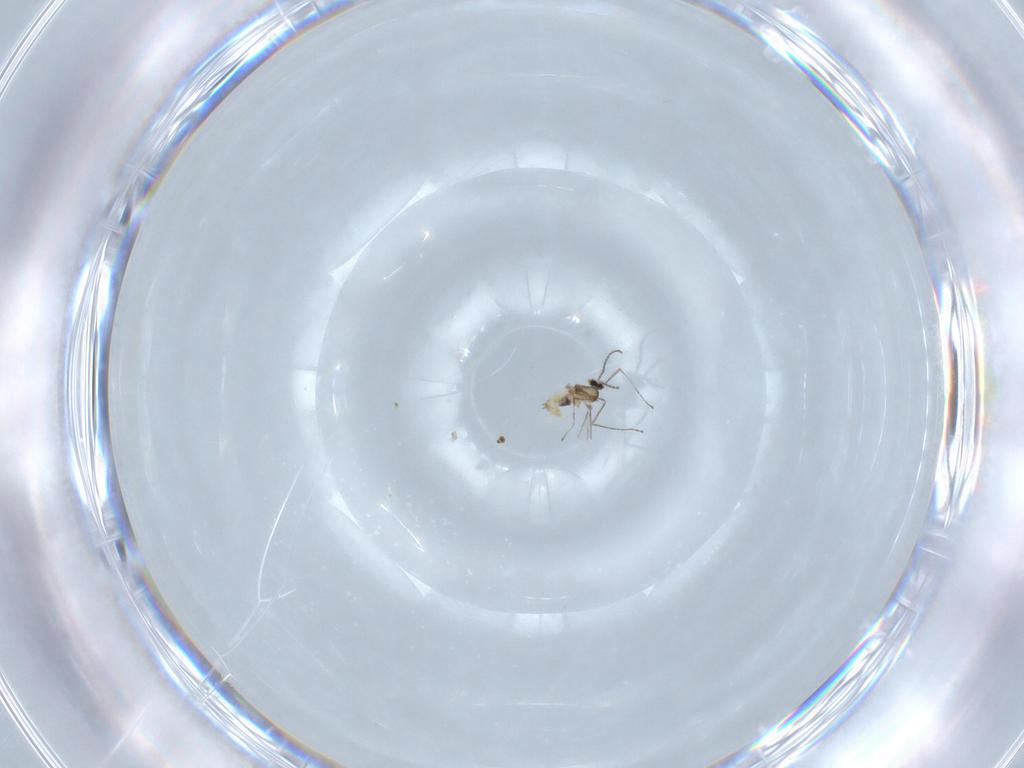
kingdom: Animalia
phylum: Arthropoda
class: Insecta
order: Diptera
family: Cecidomyiidae
